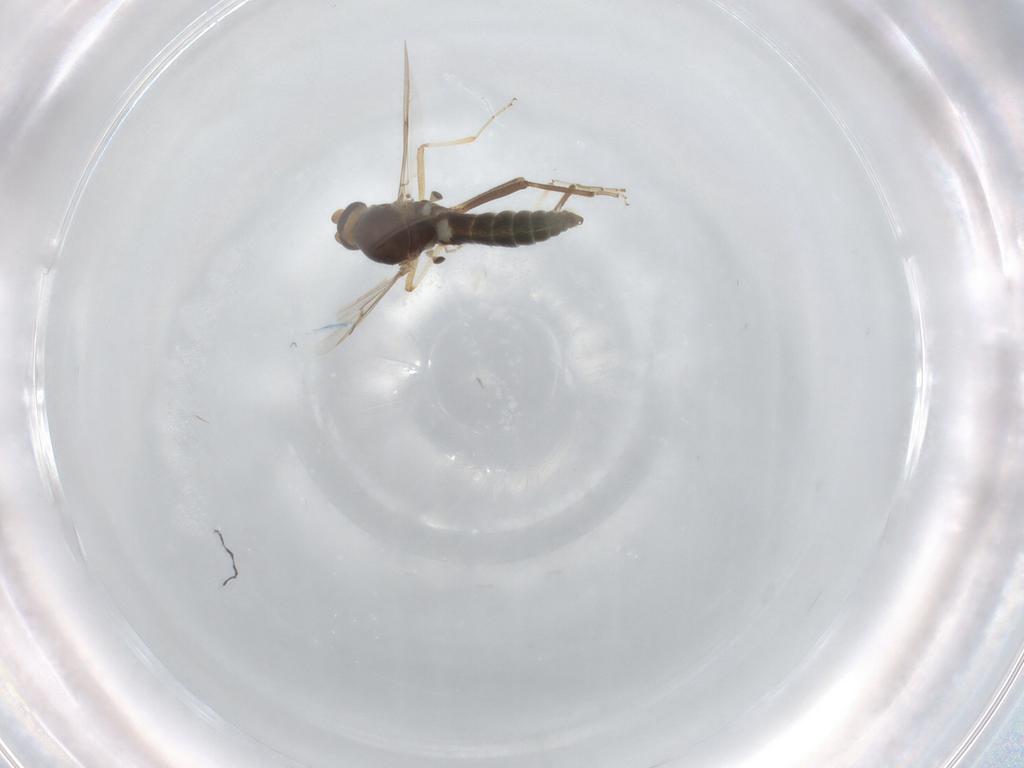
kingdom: Animalia
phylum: Arthropoda
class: Insecta
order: Diptera
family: Ceratopogonidae
